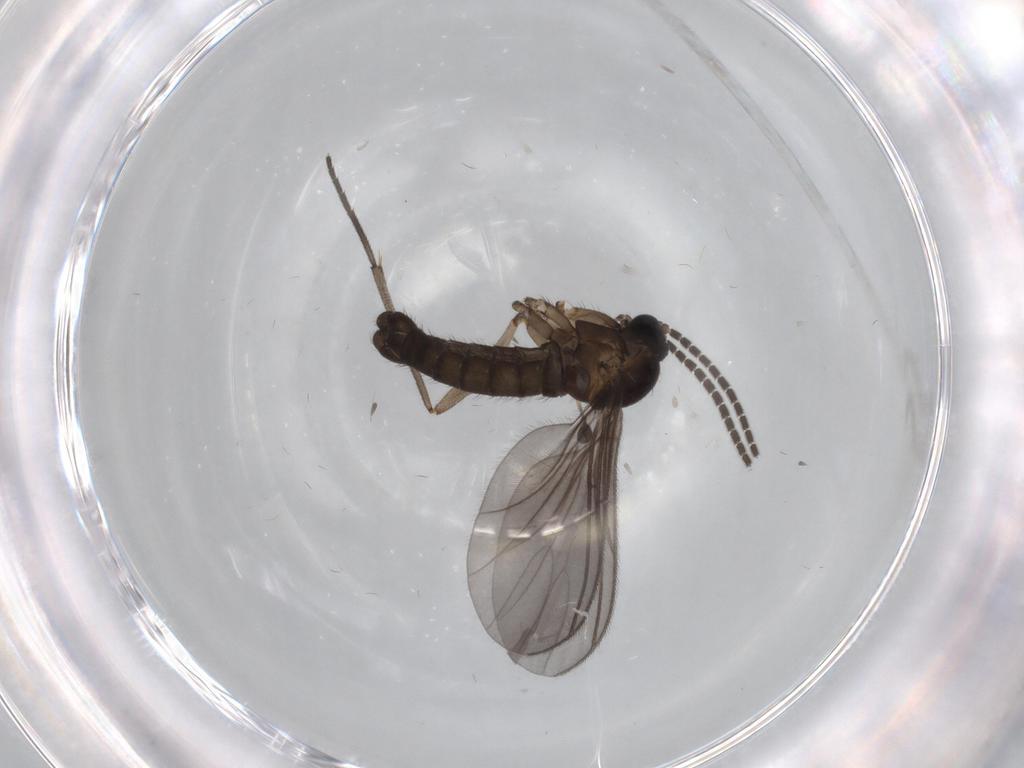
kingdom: Animalia
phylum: Arthropoda
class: Insecta
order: Diptera
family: Sciaridae
